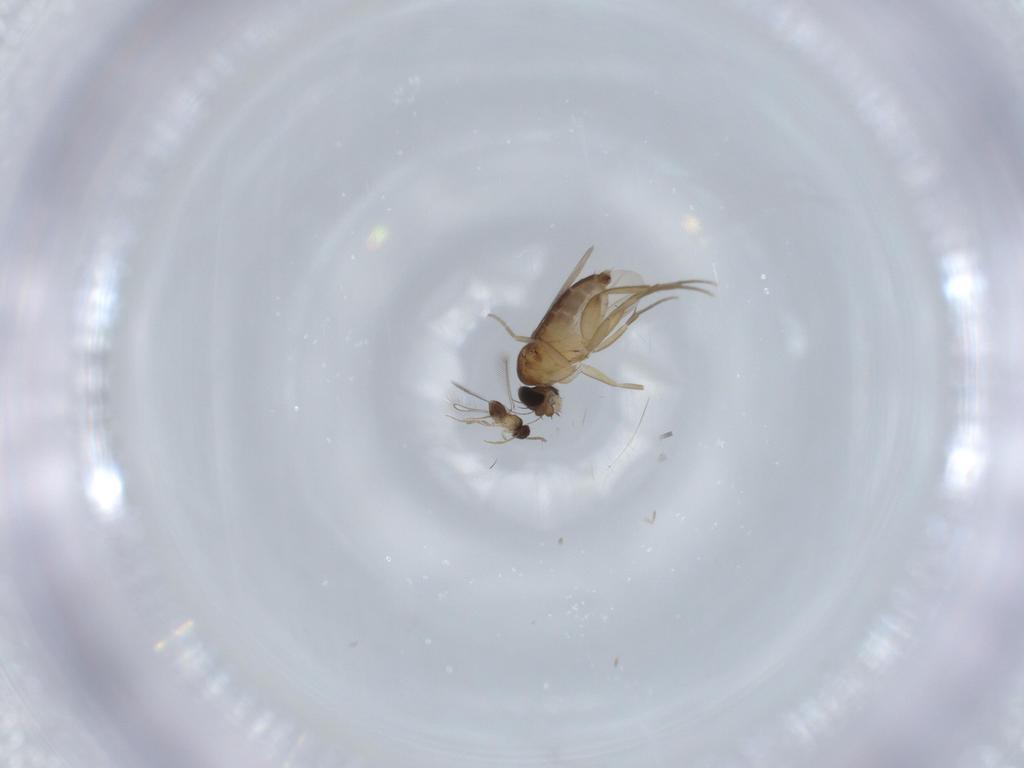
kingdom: Animalia
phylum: Arthropoda
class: Insecta
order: Diptera
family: Phoridae
